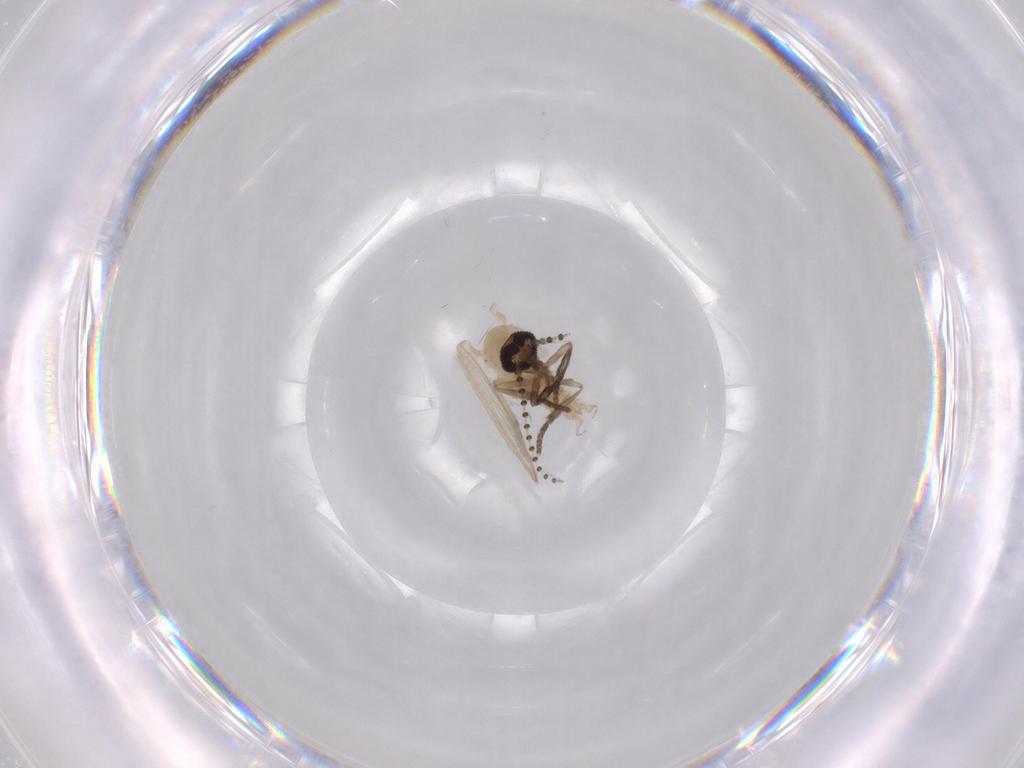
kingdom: Animalia
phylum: Arthropoda
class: Insecta
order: Diptera
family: Psychodidae
